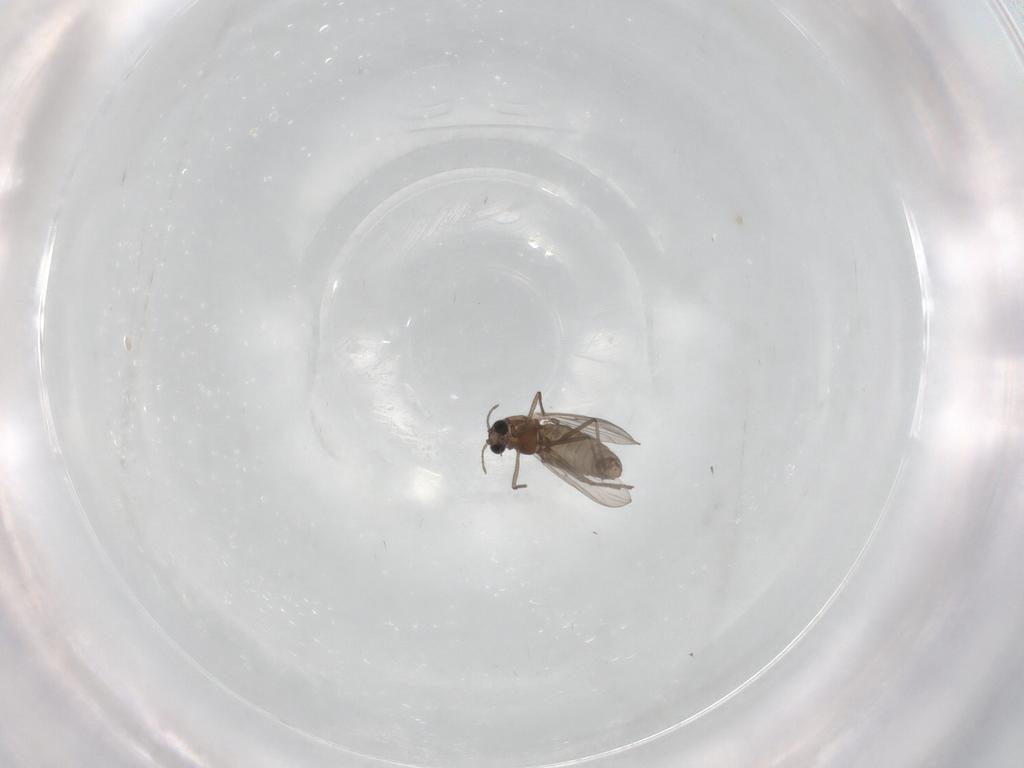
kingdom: Animalia
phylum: Arthropoda
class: Insecta
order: Diptera
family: Chironomidae
